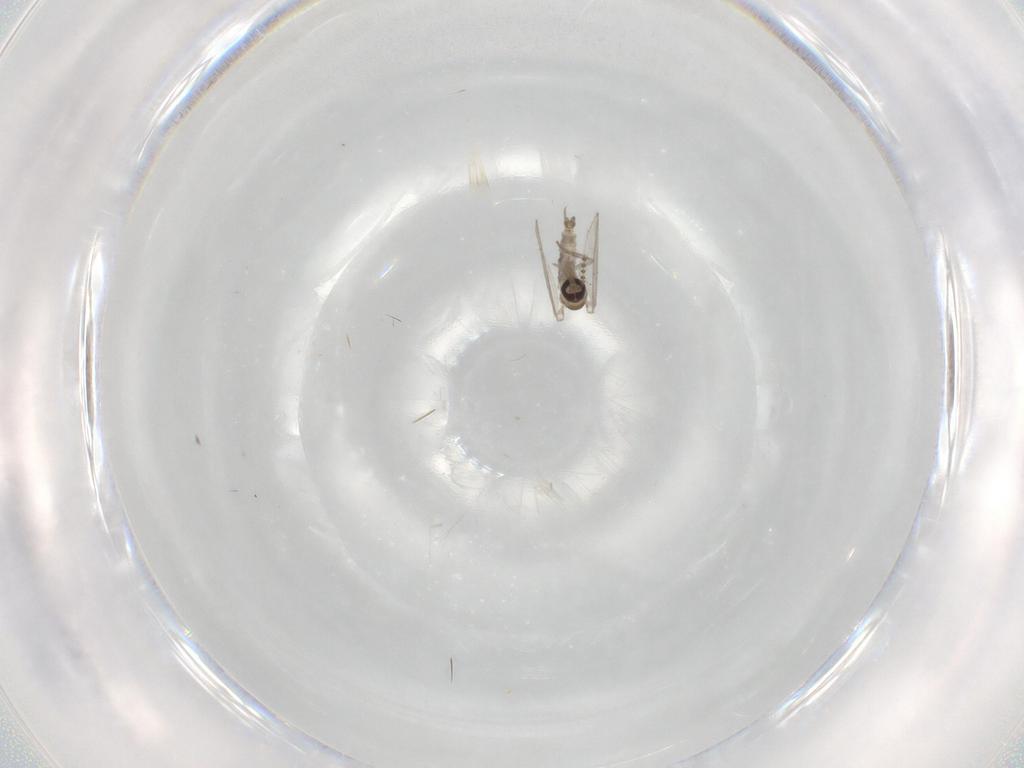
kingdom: Animalia
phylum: Arthropoda
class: Insecta
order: Diptera
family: Psychodidae
